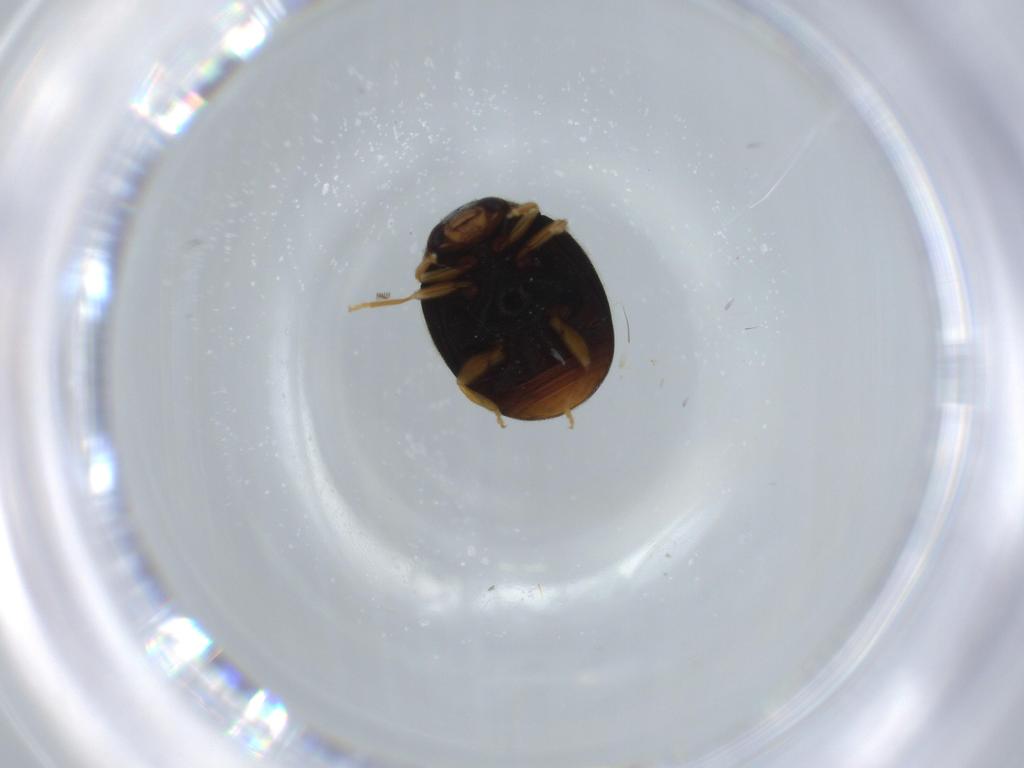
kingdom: Animalia
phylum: Arthropoda
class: Insecta
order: Coleoptera
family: Coccinellidae
